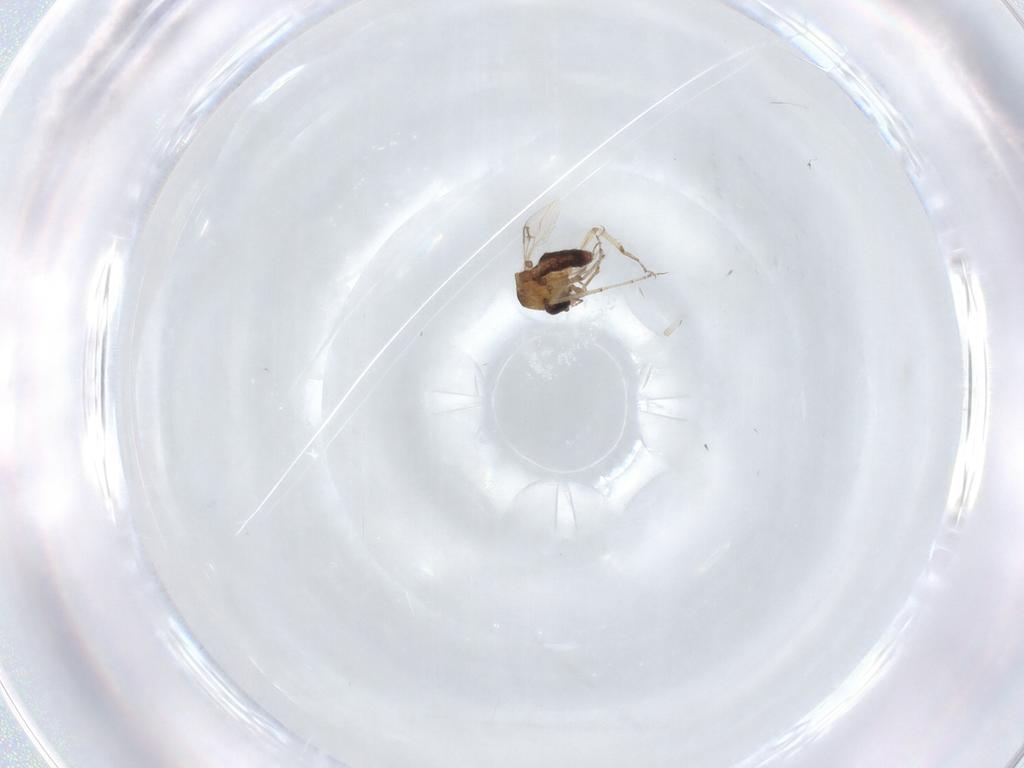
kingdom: Animalia
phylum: Arthropoda
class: Insecta
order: Diptera
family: Ceratopogonidae
